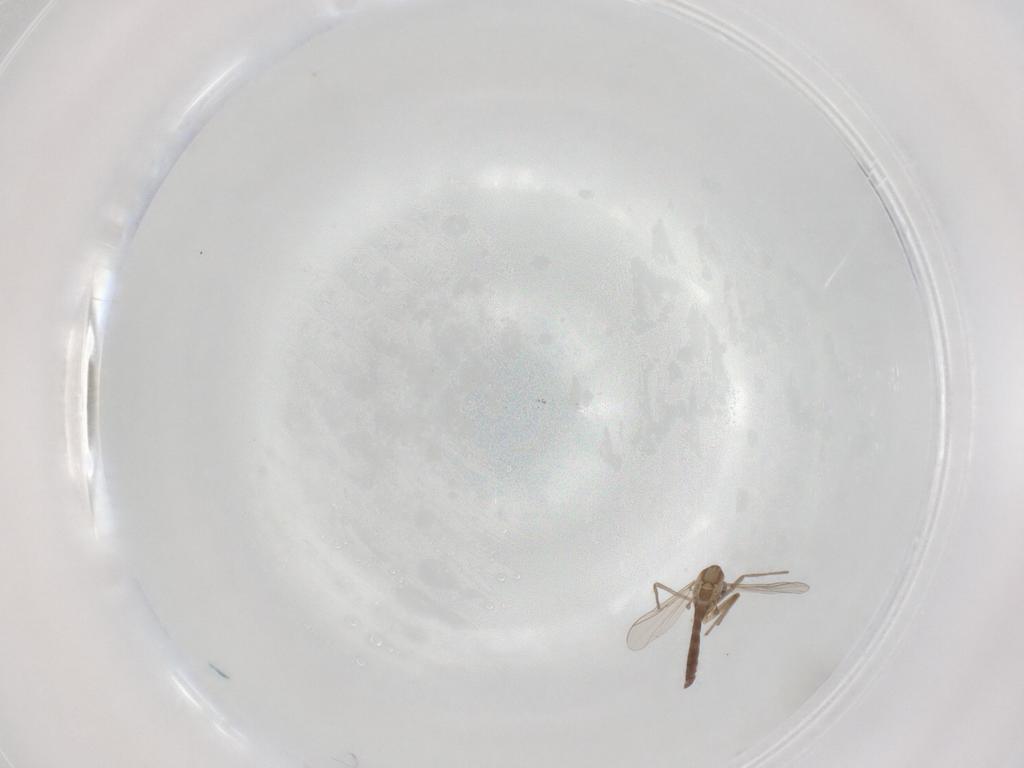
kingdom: Animalia
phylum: Arthropoda
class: Insecta
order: Diptera
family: Chironomidae
